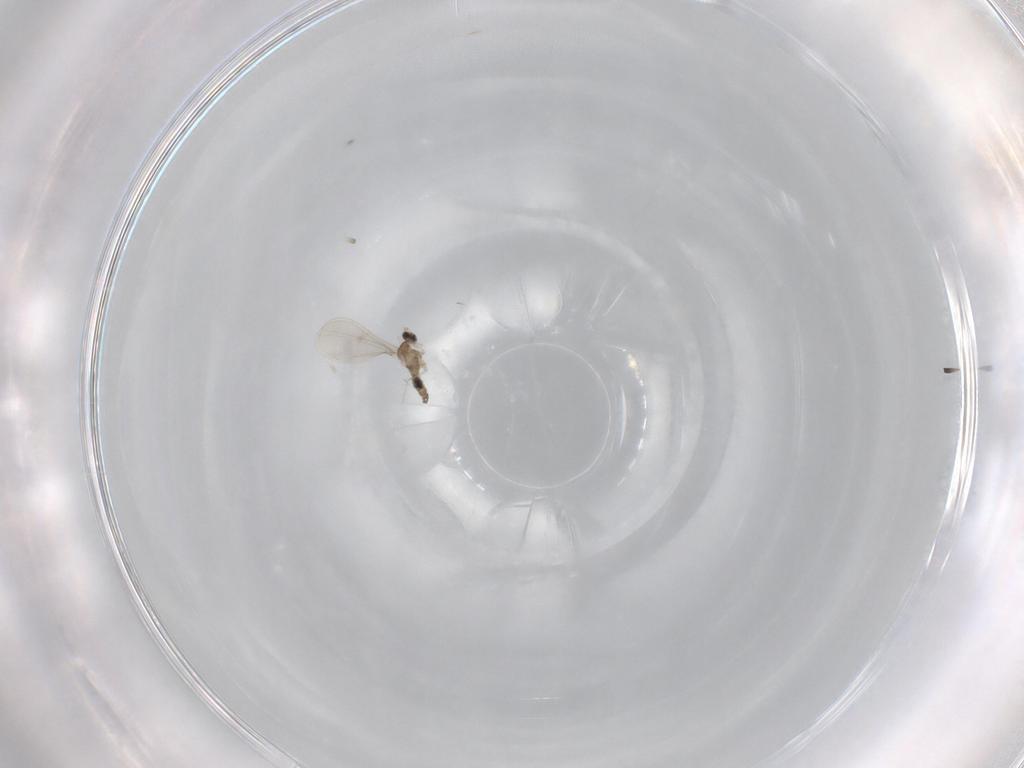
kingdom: Animalia
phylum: Arthropoda
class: Insecta
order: Diptera
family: Cecidomyiidae
